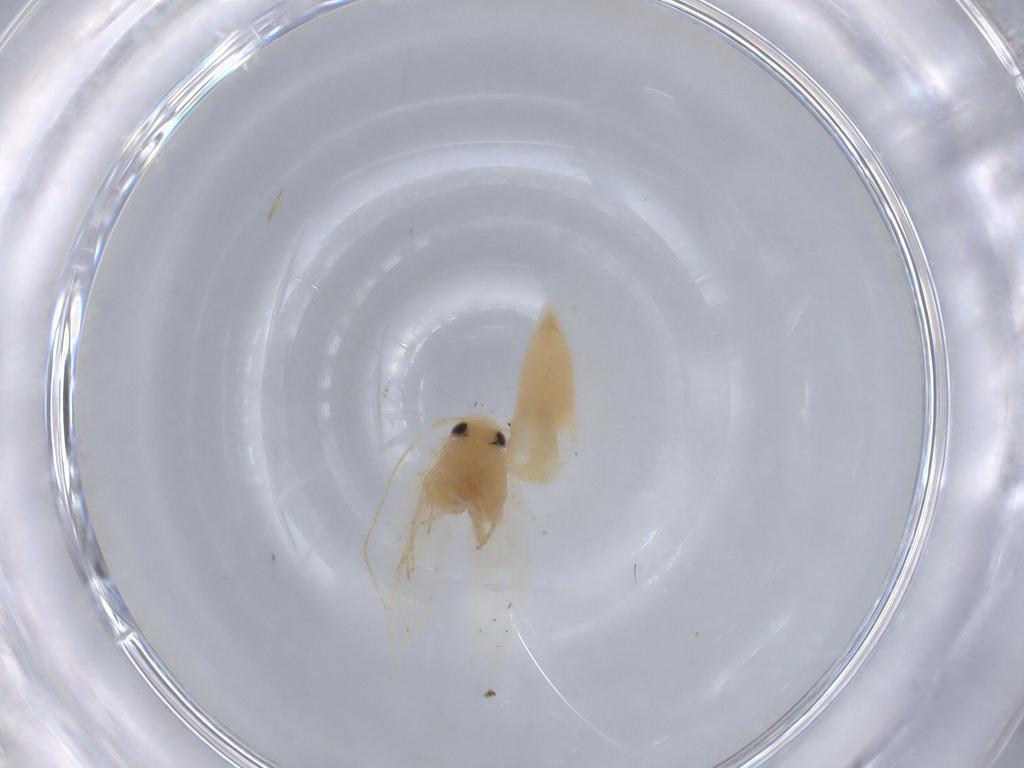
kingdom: Animalia
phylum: Arthropoda
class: Insecta
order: Lepidoptera
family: Gracillariidae
